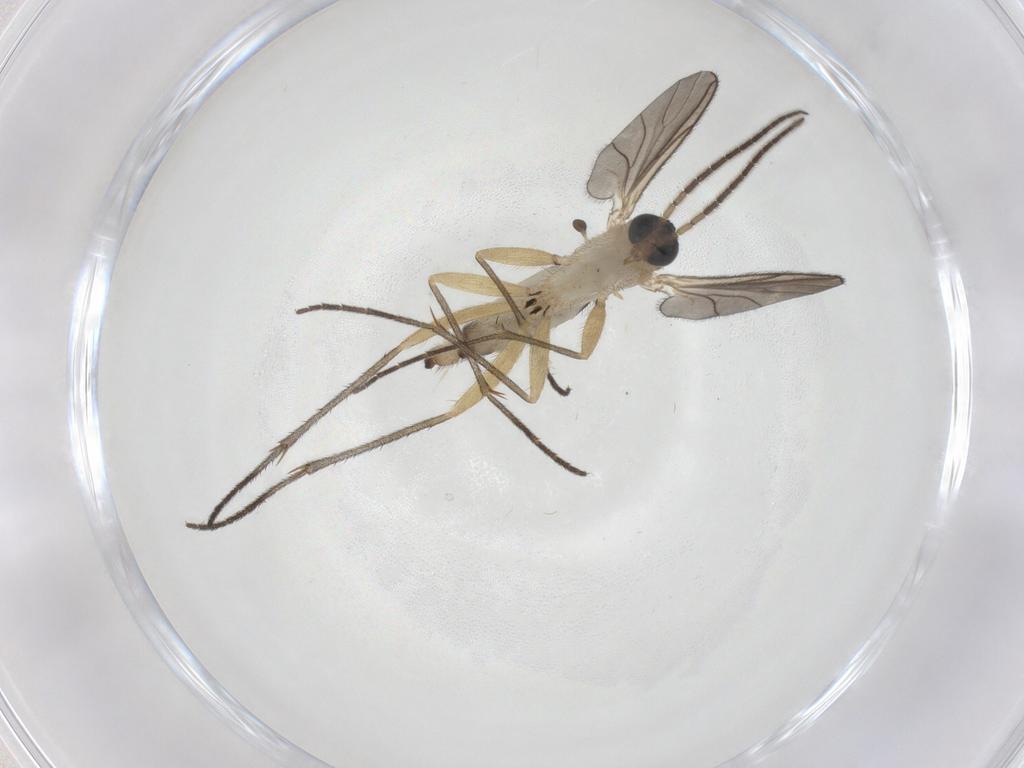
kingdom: Animalia
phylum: Arthropoda
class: Insecta
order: Diptera
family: Sciaridae
